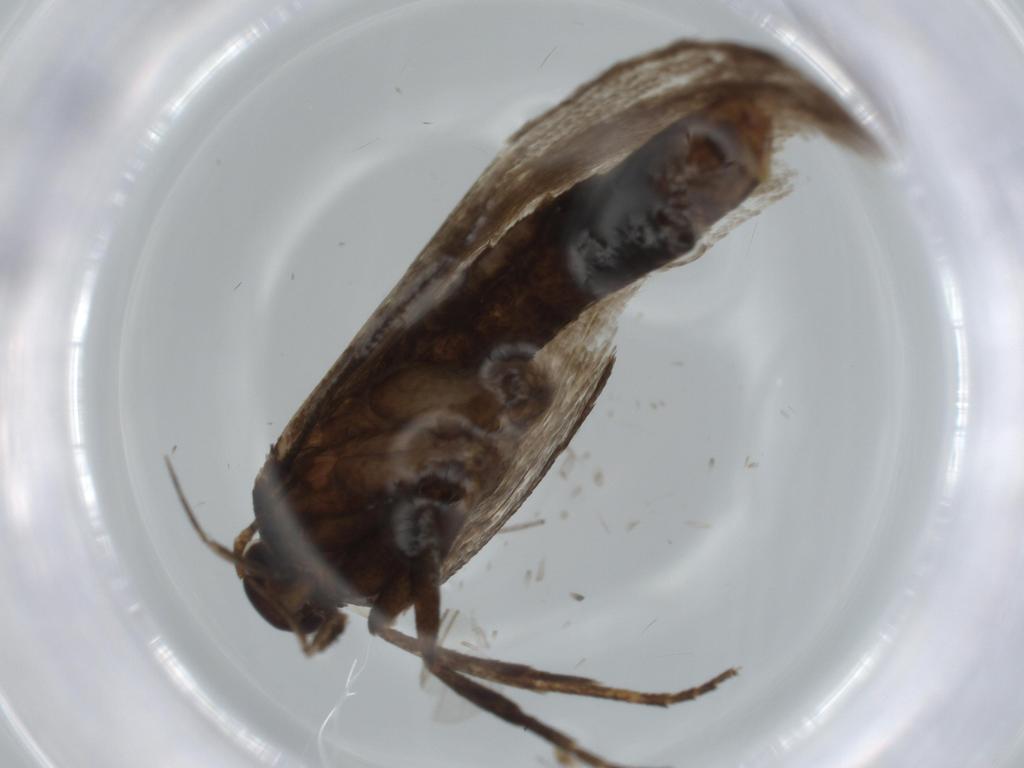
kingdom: Animalia
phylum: Arthropoda
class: Insecta
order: Lepidoptera
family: Gelechiidae
